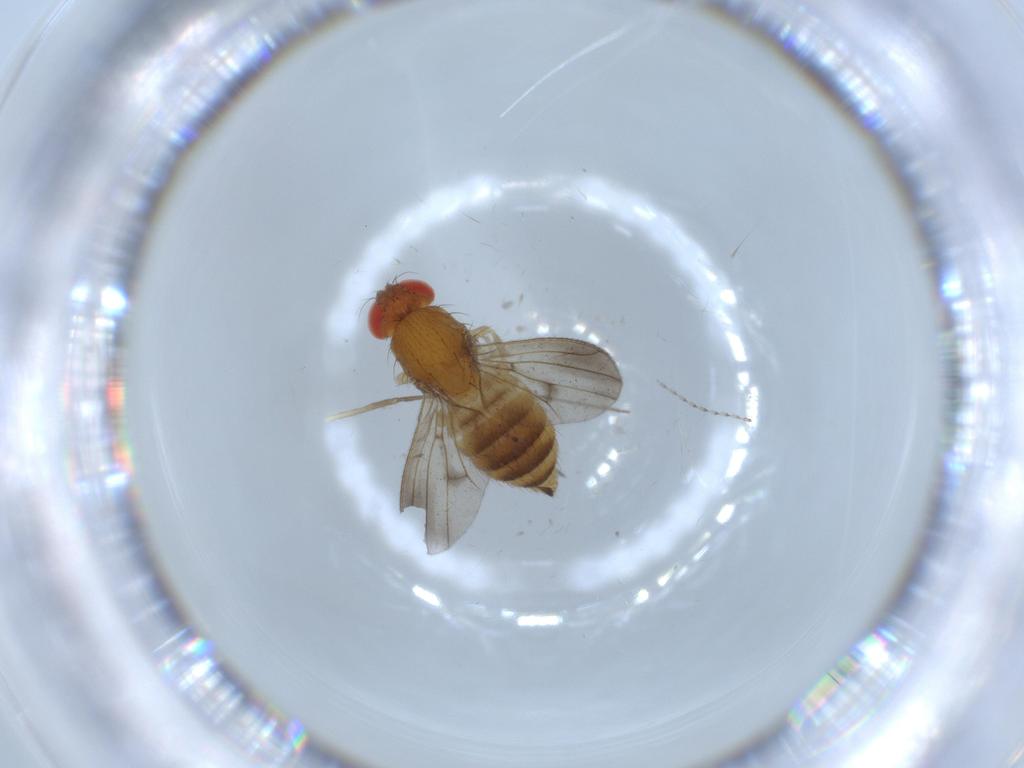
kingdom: Animalia
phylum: Arthropoda
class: Insecta
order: Diptera
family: Drosophilidae
